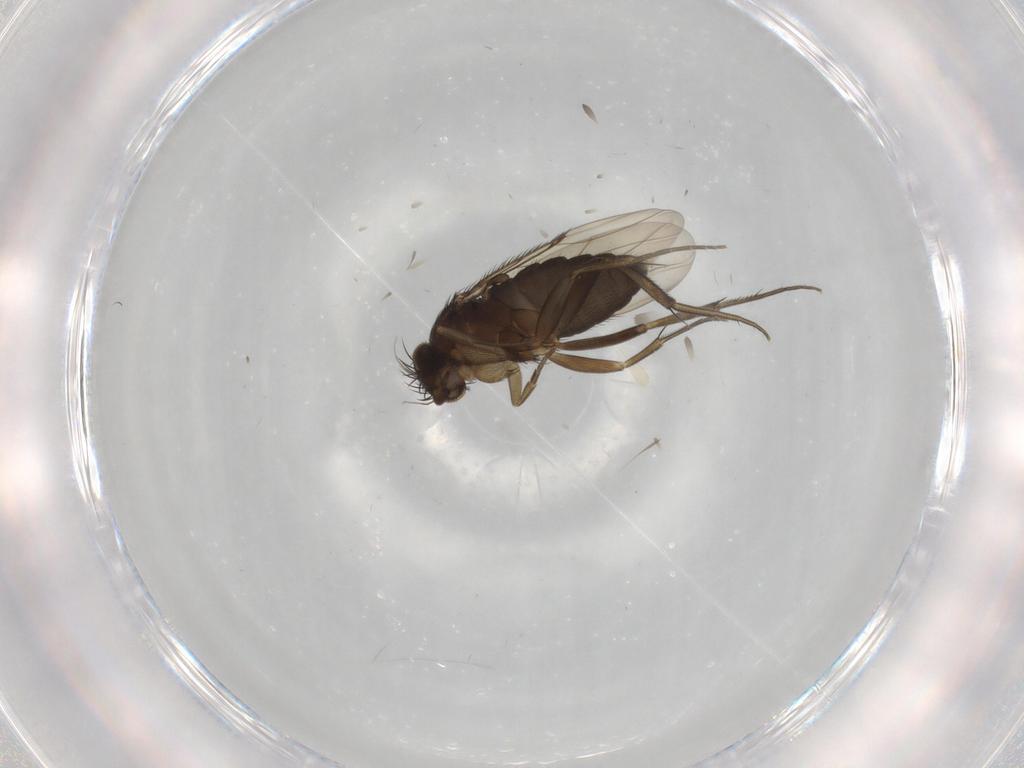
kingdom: Animalia
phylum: Arthropoda
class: Insecta
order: Diptera
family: Phoridae
